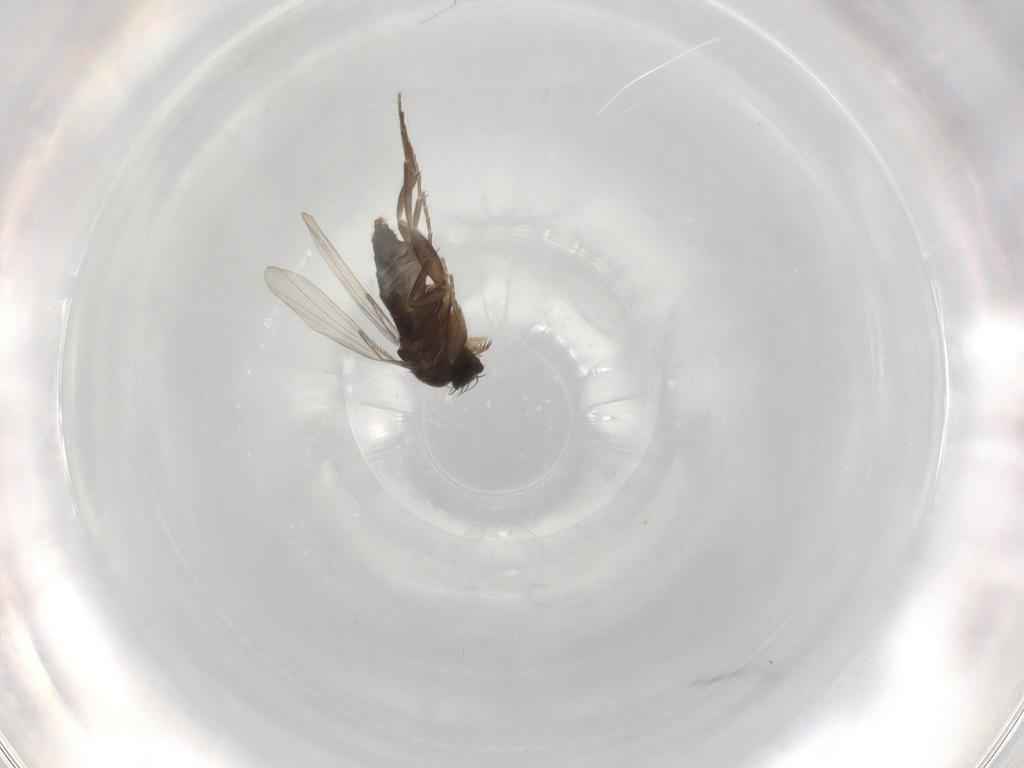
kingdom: Animalia
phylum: Arthropoda
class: Insecta
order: Diptera
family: Phoridae
